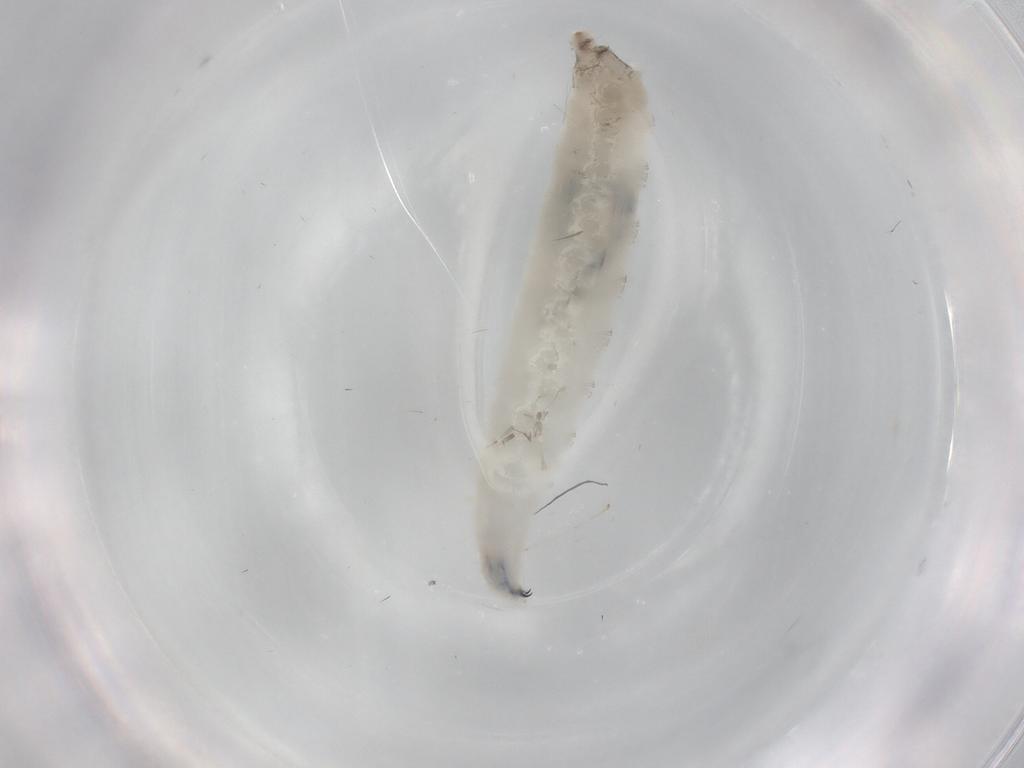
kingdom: Animalia
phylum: Arthropoda
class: Insecta
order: Diptera
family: Drosophilidae
